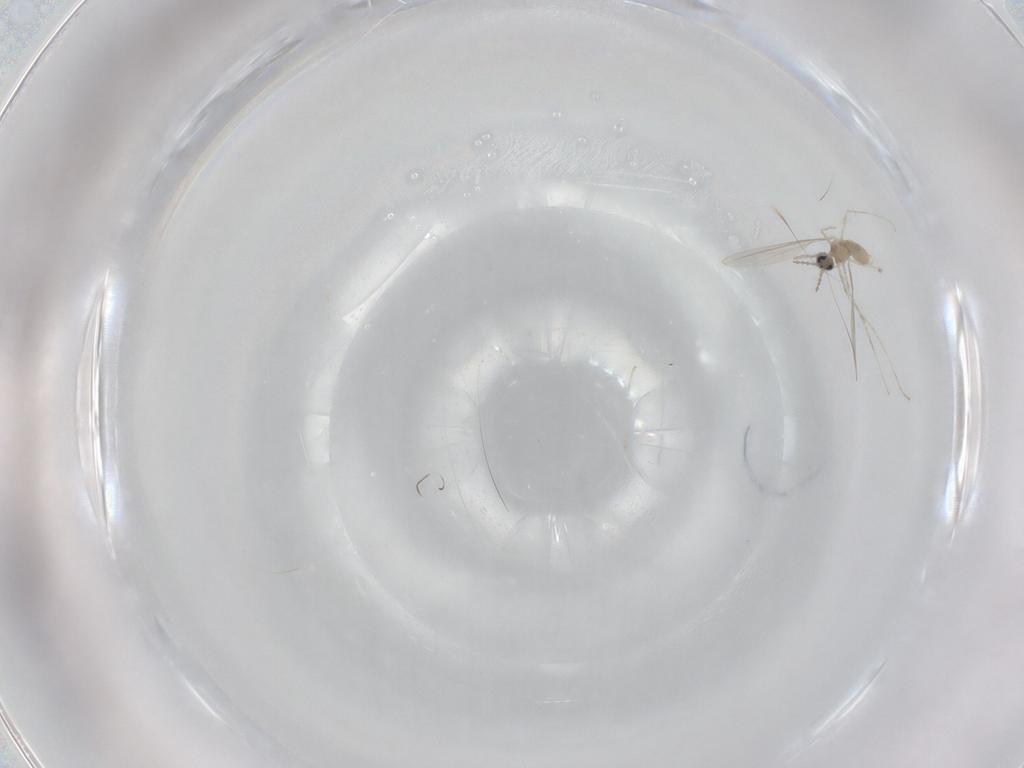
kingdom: Animalia
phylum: Arthropoda
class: Insecta
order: Diptera
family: Cecidomyiidae
